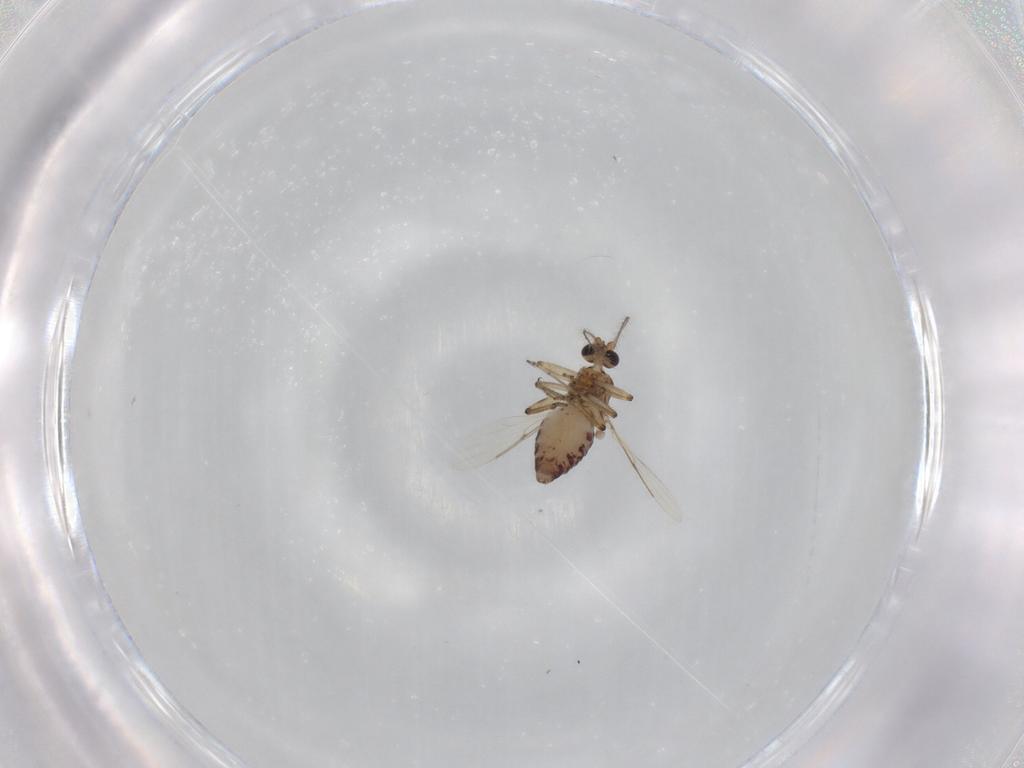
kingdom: Animalia
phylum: Arthropoda
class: Insecta
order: Diptera
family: Ceratopogonidae
